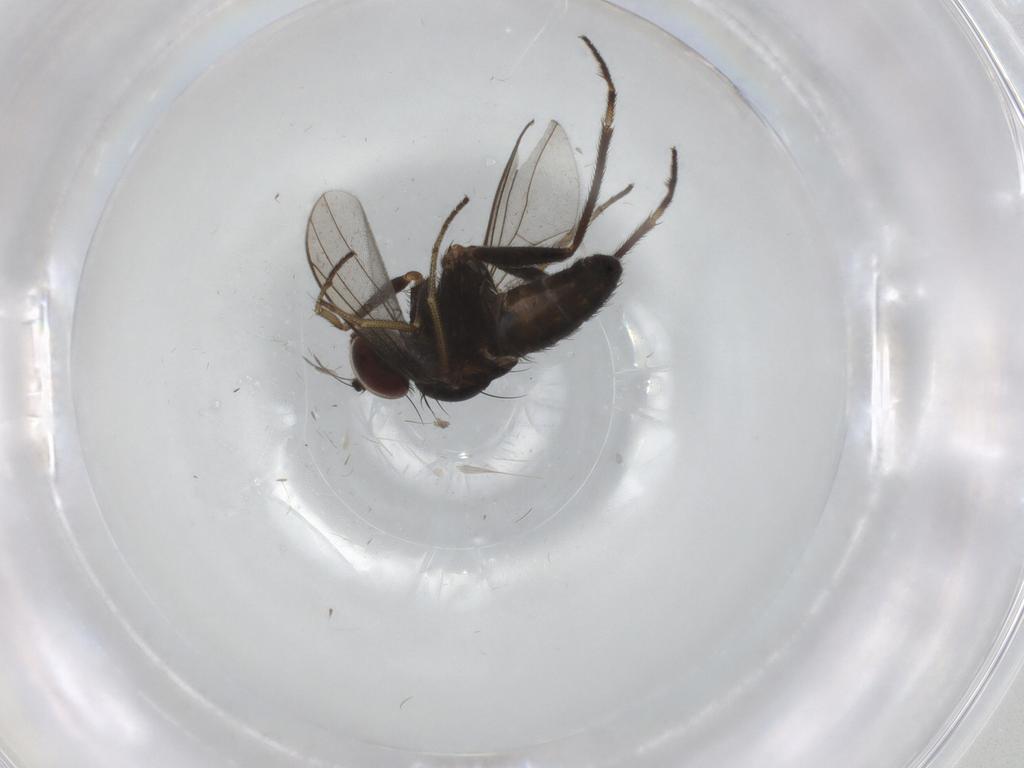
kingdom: Animalia
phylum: Arthropoda
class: Insecta
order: Diptera
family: Dolichopodidae
